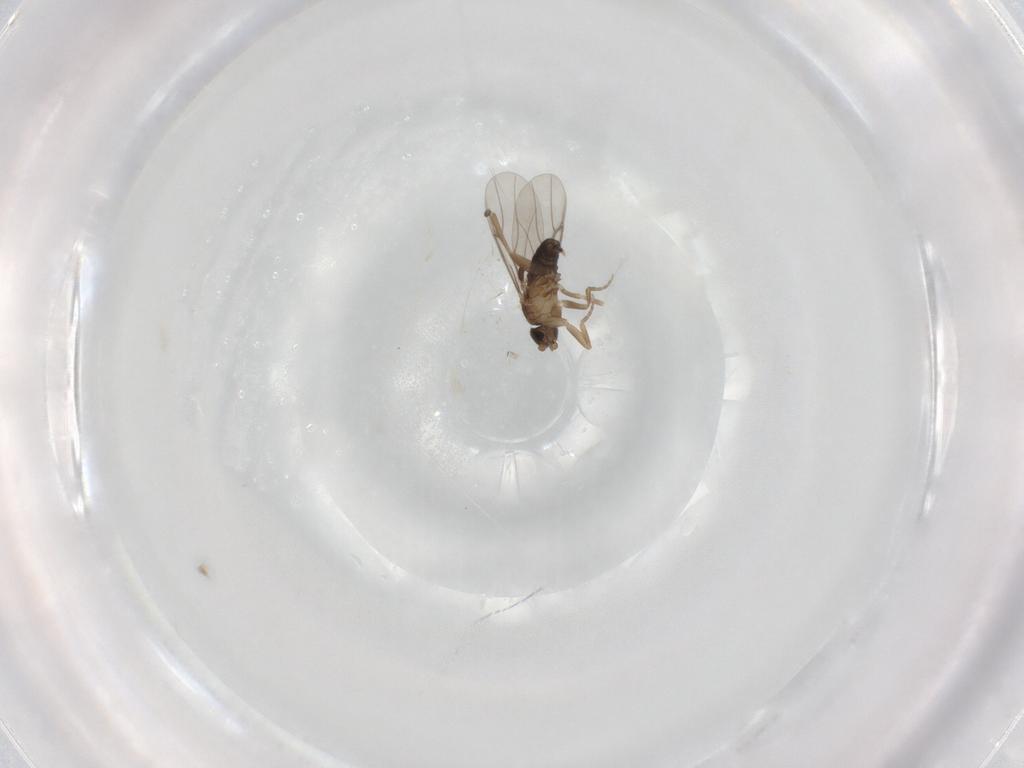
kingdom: Animalia
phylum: Arthropoda
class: Insecta
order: Diptera
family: Phoridae
